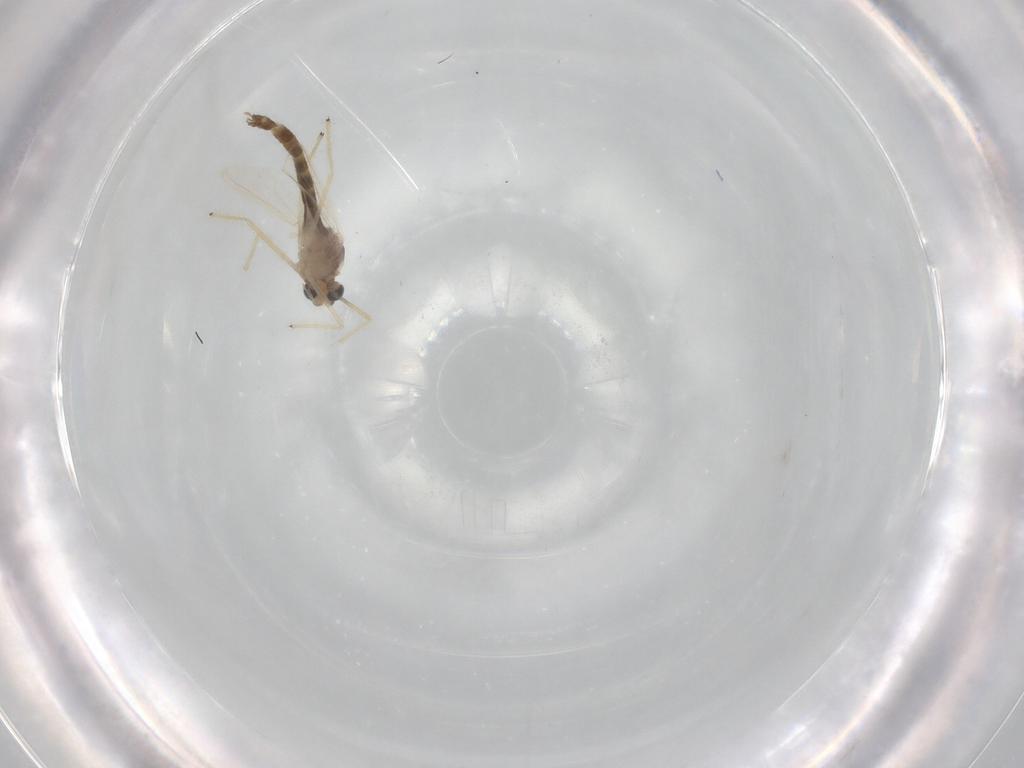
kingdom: Animalia
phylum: Arthropoda
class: Insecta
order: Diptera
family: Chironomidae
